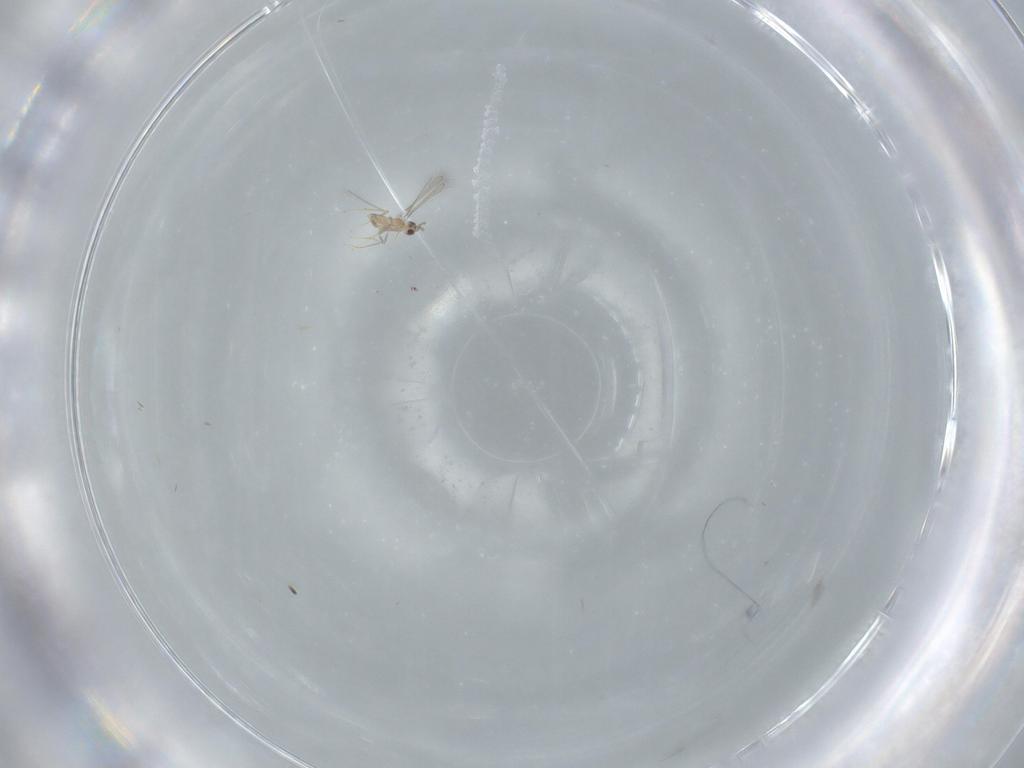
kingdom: Animalia
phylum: Arthropoda
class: Insecta
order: Hymenoptera
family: Mymaridae
